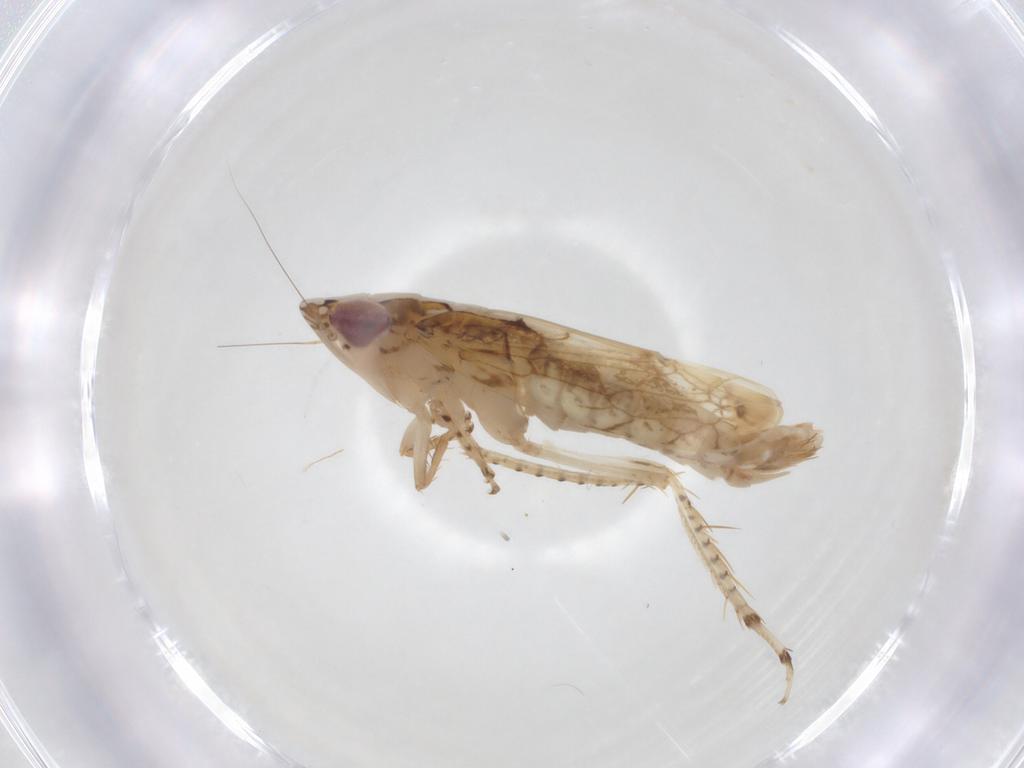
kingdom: Animalia
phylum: Arthropoda
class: Insecta
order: Hemiptera
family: Cicadellidae
